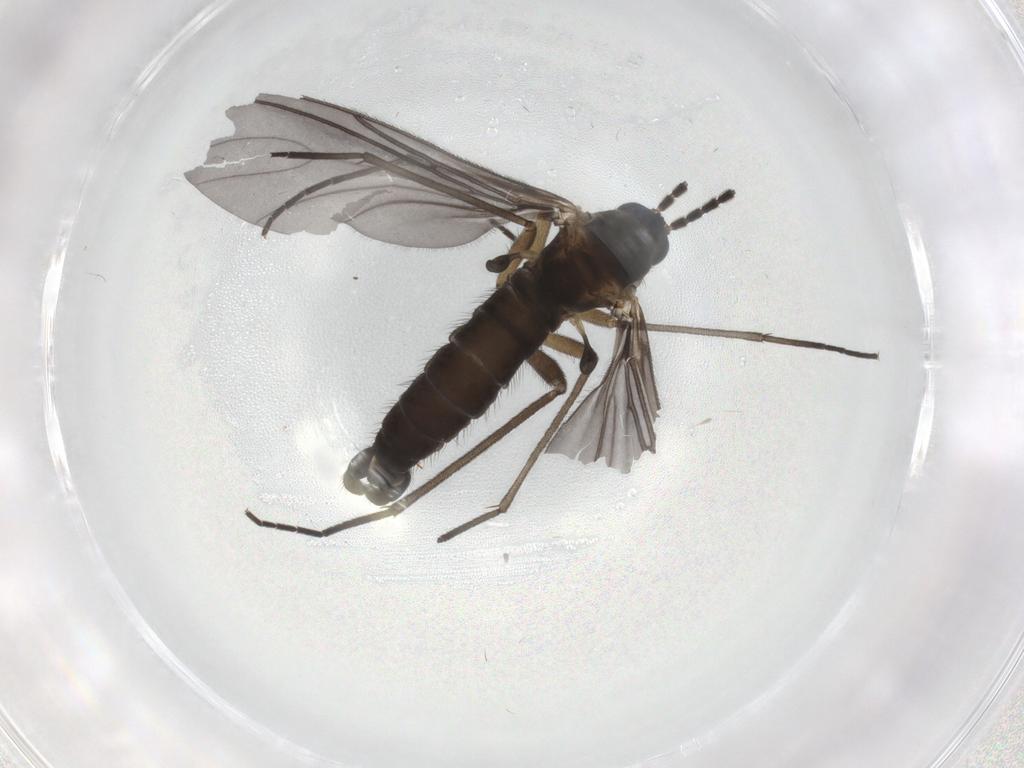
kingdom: Animalia
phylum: Arthropoda
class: Insecta
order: Diptera
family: Sciaridae
